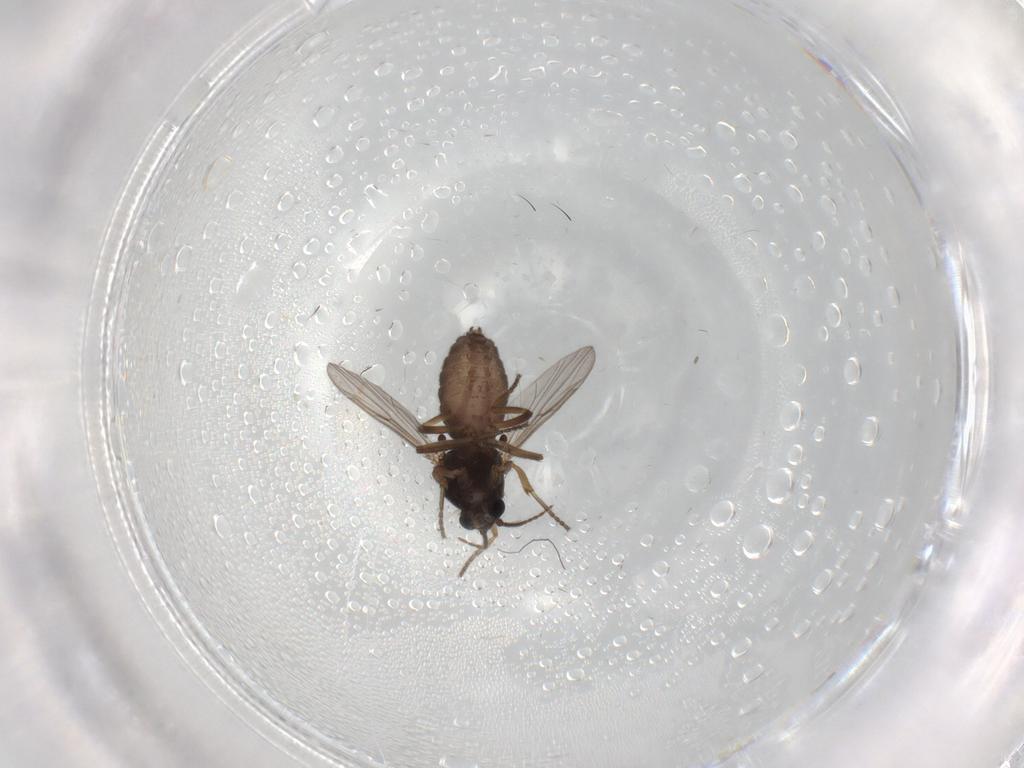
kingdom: Animalia
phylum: Arthropoda
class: Insecta
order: Diptera
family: Ceratopogonidae
